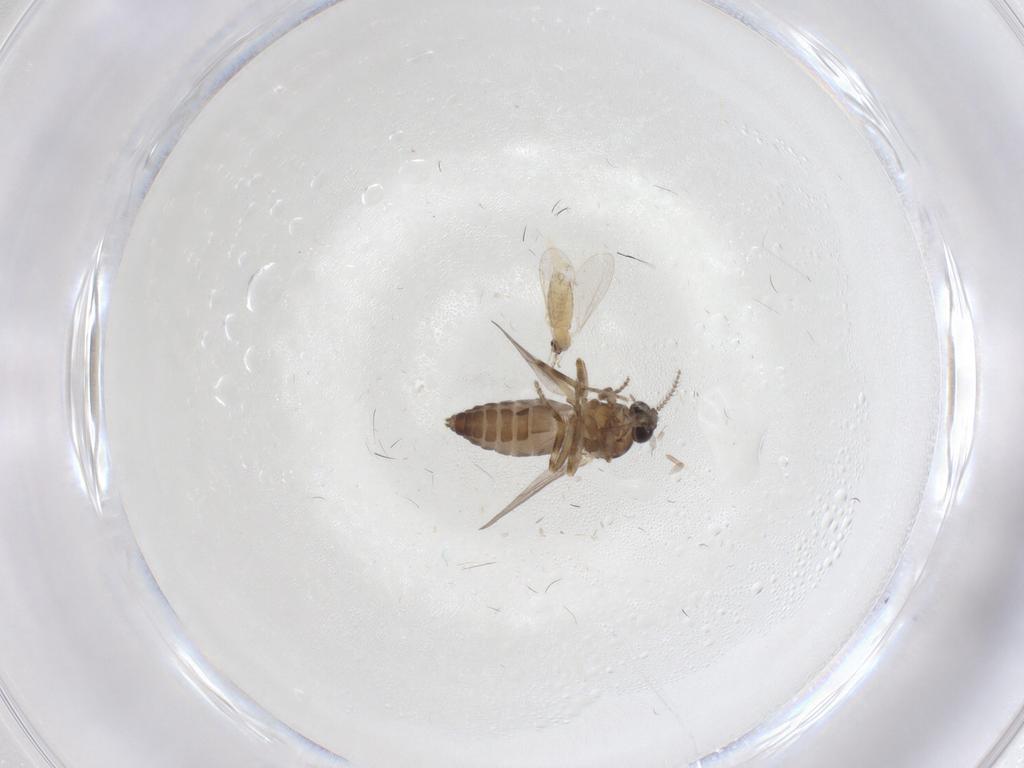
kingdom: Animalia
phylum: Arthropoda
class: Insecta
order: Diptera
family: Ceratopogonidae
